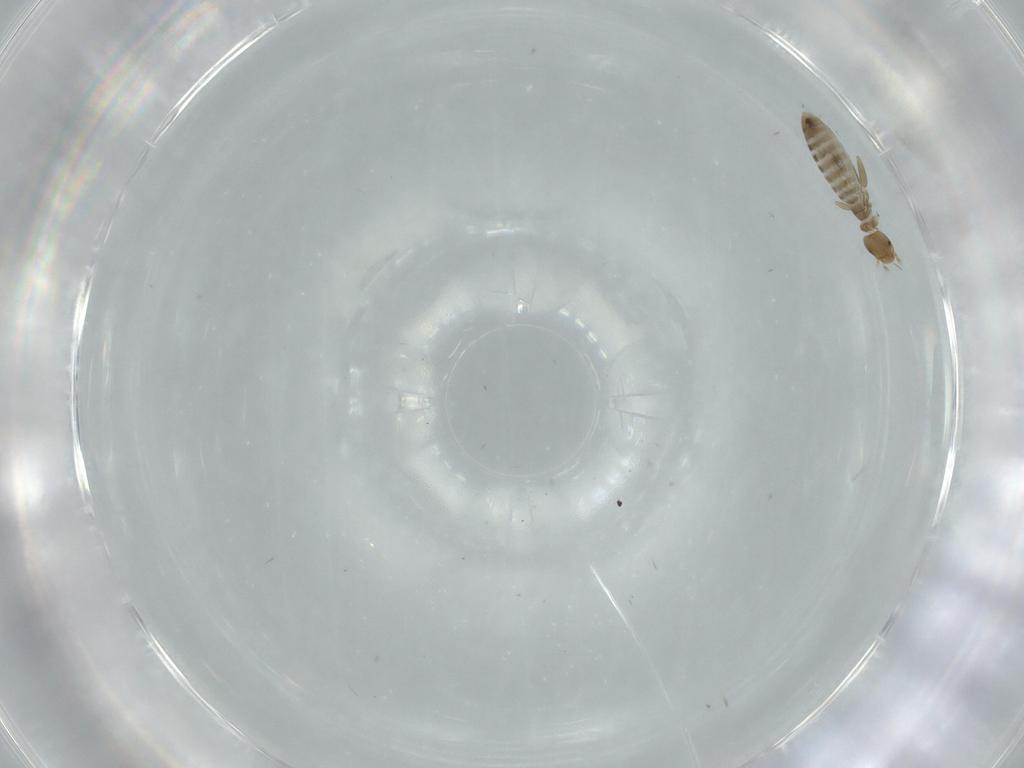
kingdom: Animalia
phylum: Arthropoda
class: Insecta
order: Psocodea
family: Liposcelididae
